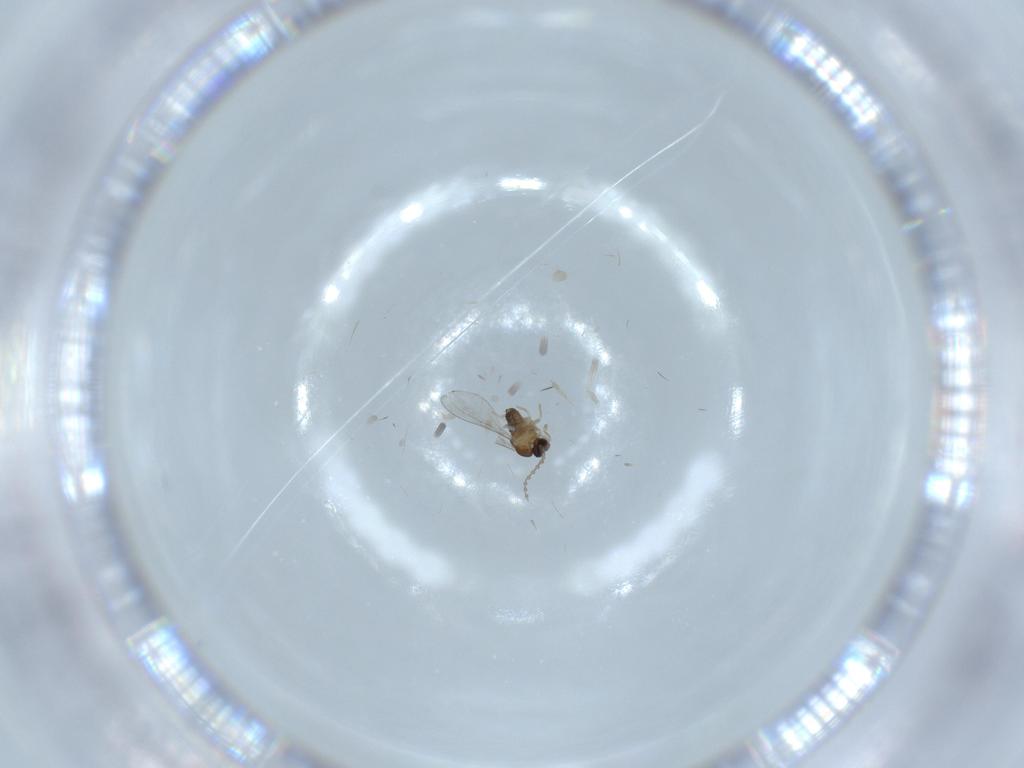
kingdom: Animalia
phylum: Arthropoda
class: Insecta
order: Diptera
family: Cecidomyiidae
